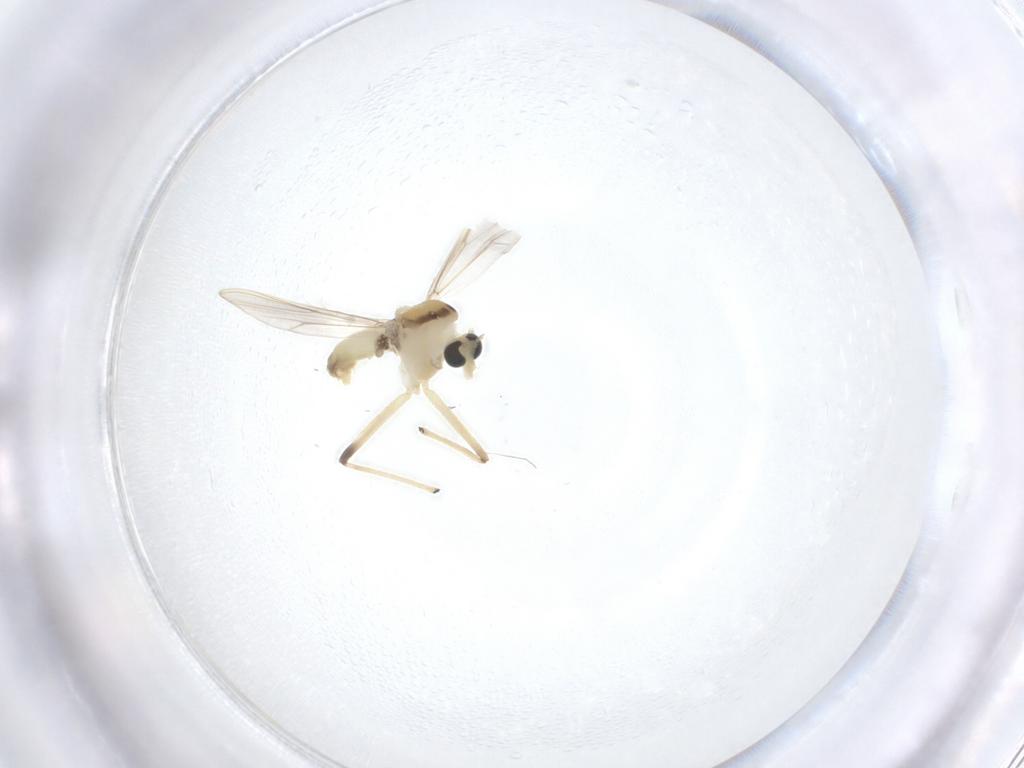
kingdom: Animalia
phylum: Arthropoda
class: Insecta
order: Diptera
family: Chironomidae
